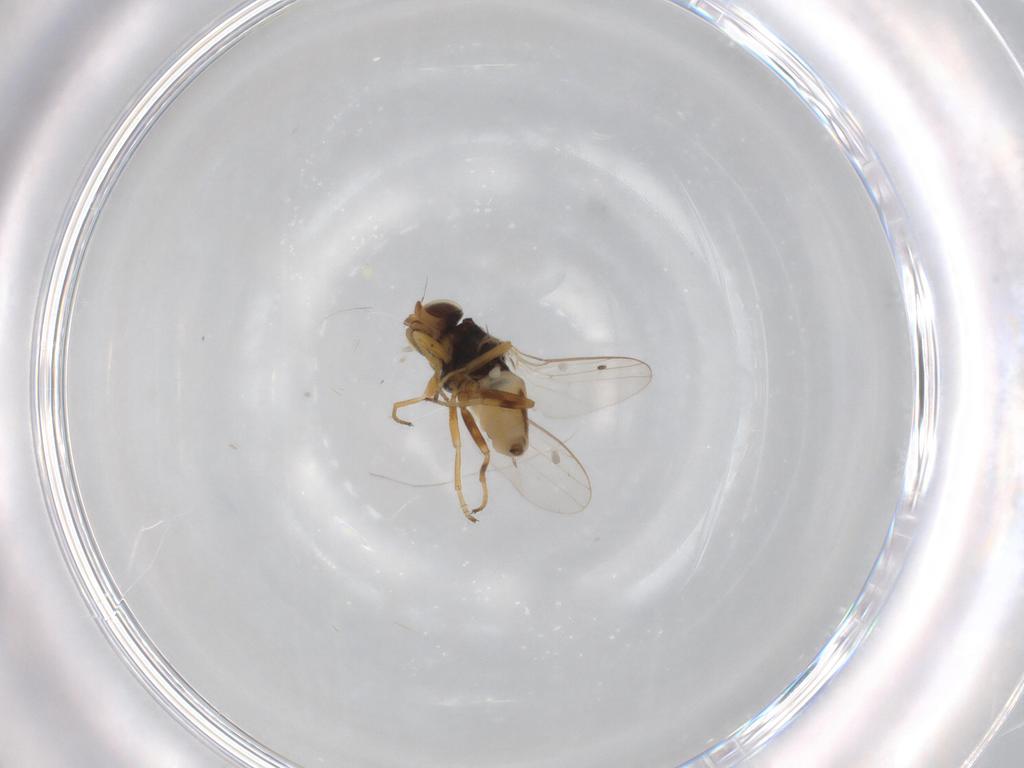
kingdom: Animalia
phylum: Arthropoda
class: Insecta
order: Diptera
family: Chloropidae
